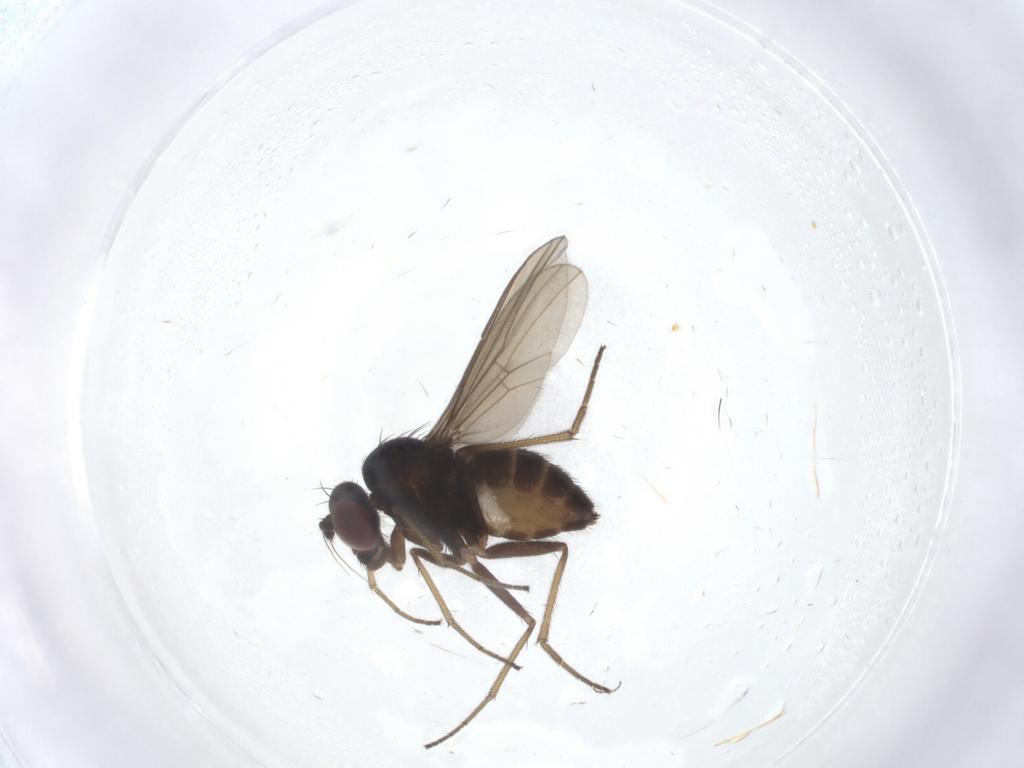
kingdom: Animalia
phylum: Arthropoda
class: Insecta
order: Diptera
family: Dolichopodidae
